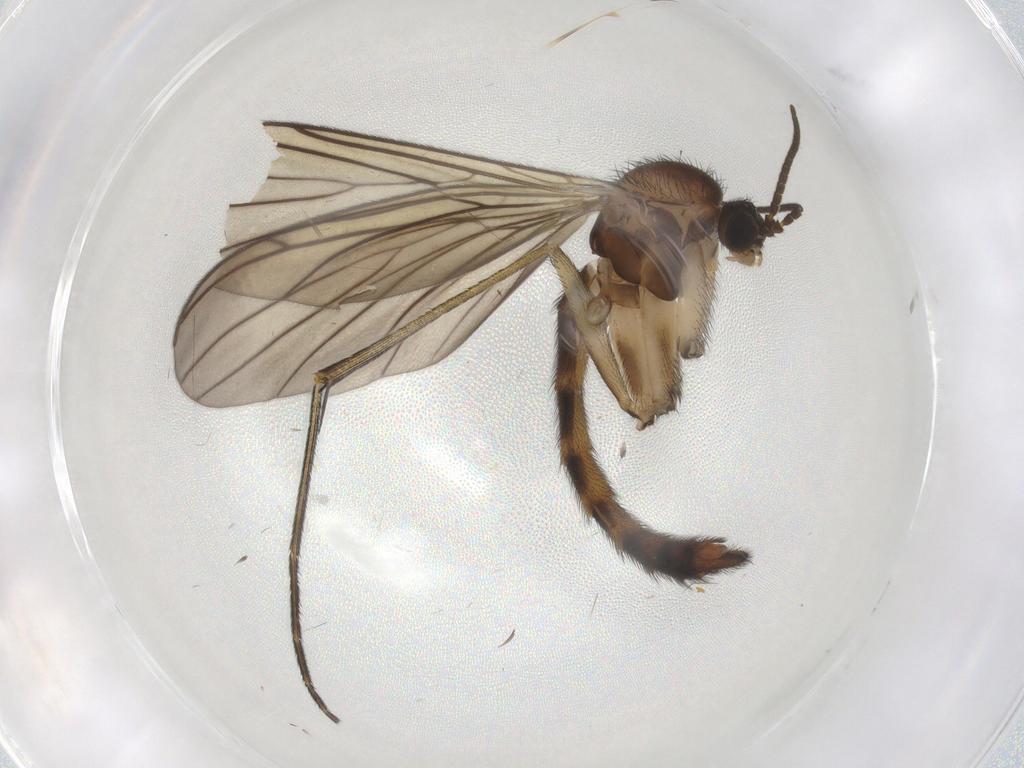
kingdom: Animalia
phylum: Arthropoda
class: Insecta
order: Diptera
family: Keroplatidae
